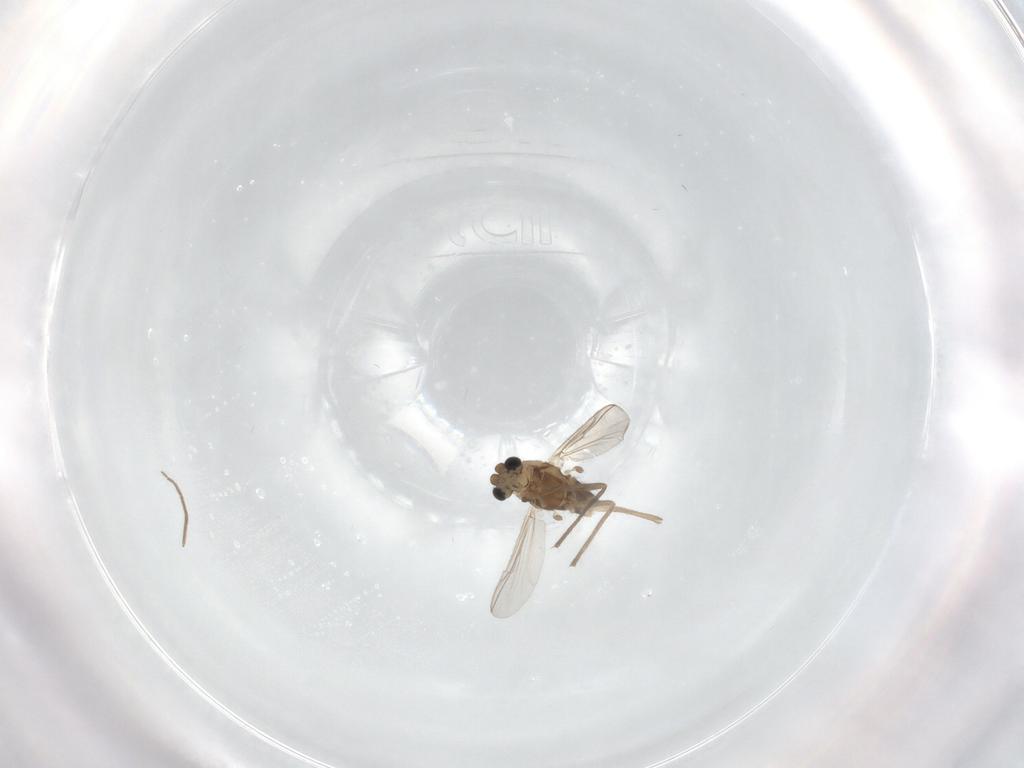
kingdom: Animalia
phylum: Arthropoda
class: Insecta
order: Diptera
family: Chironomidae
